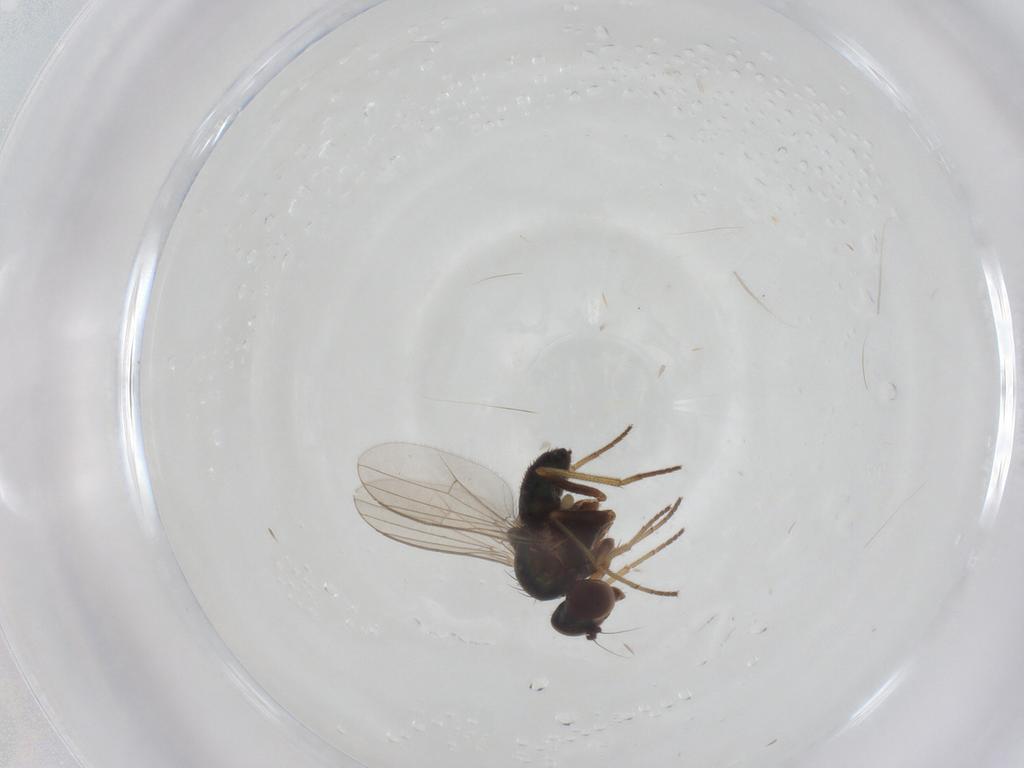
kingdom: Animalia
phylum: Arthropoda
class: Insecta
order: Diptera
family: Dolichopodidae
